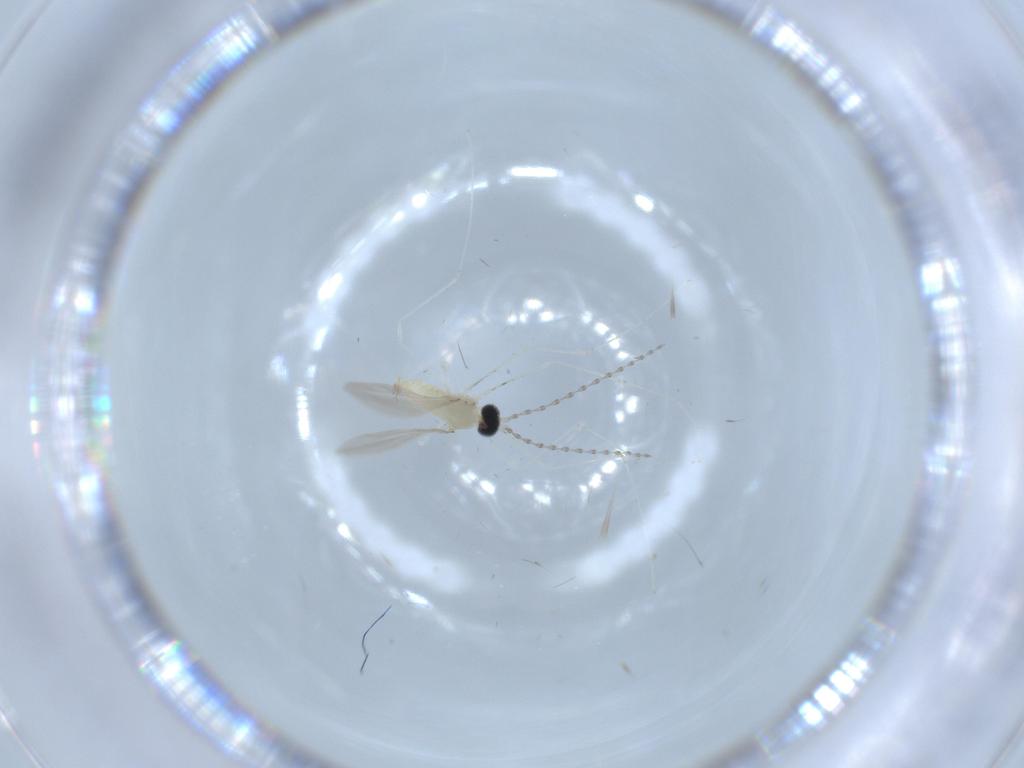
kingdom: Animalia
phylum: Arthropoda
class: Insecta
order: Diptera
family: Cecidomyiidae
